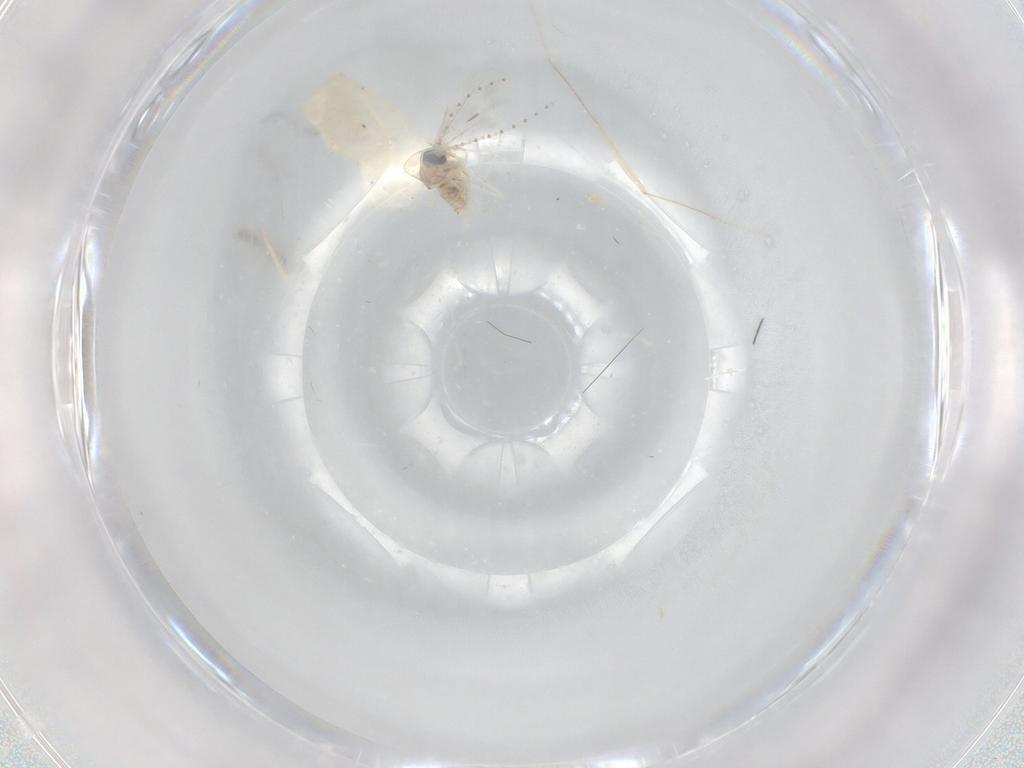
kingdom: Animalia
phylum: Arthropoda
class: Insecta
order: Diptera
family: Cecidomyiidae
